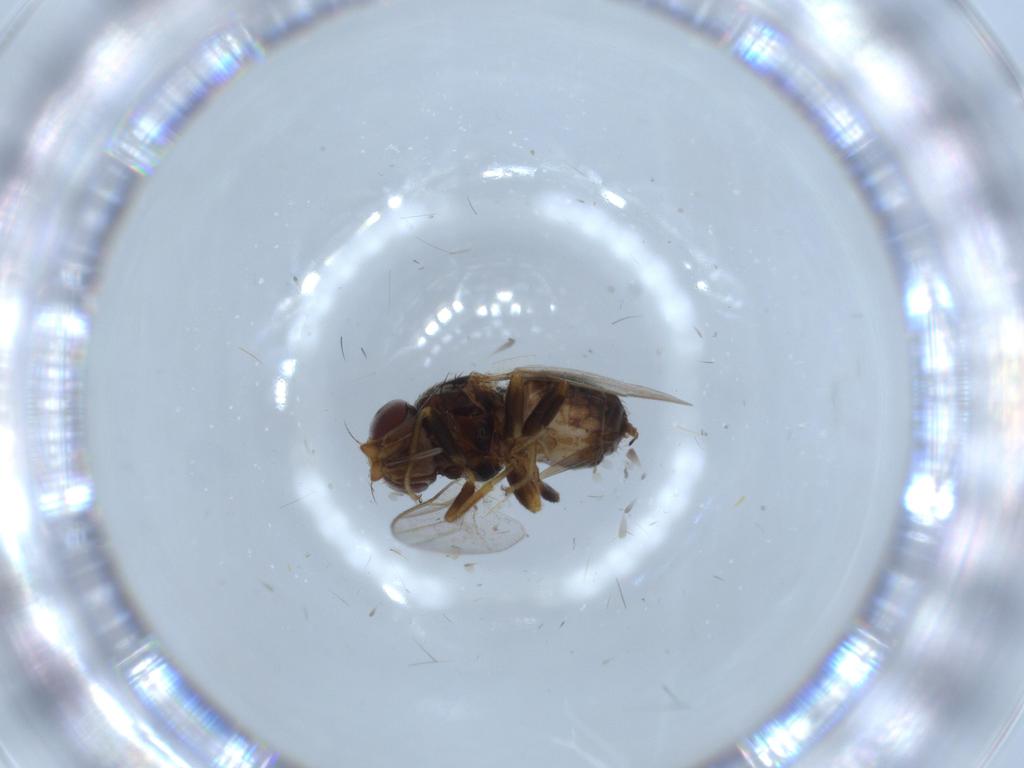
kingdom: Animalia
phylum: Arthropoda
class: Insecta
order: Diptera
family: Chloropidae
